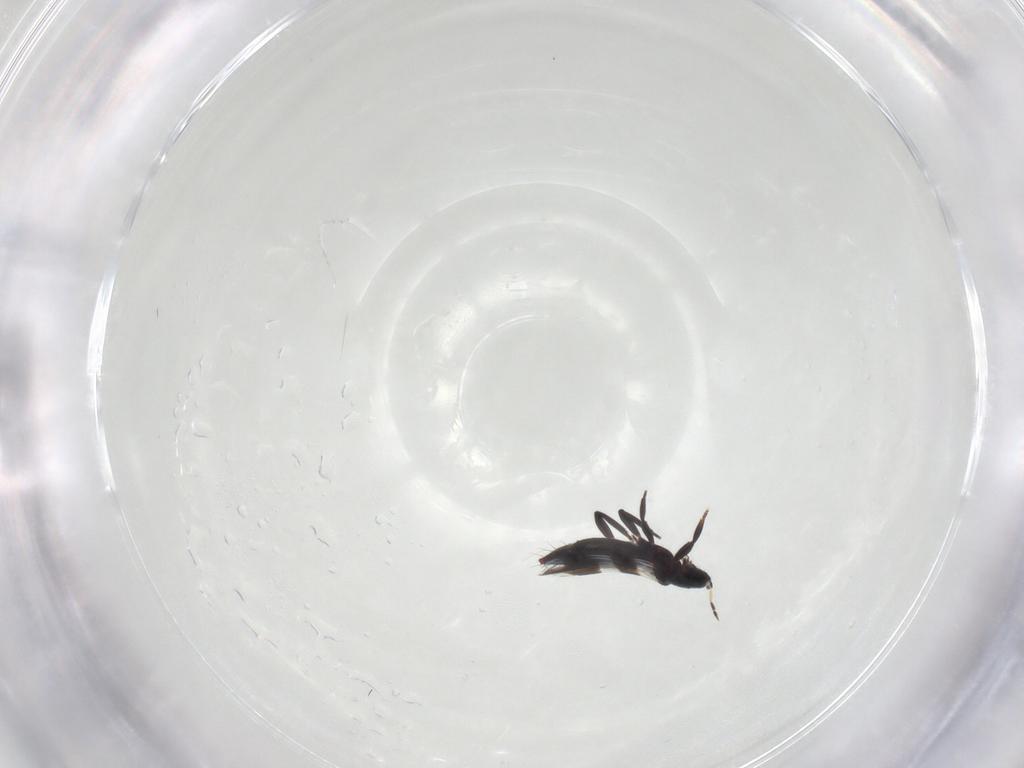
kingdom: Animalia
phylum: Arthropoda
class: Insecta
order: Thysanoptera
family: Aeolothripidae
